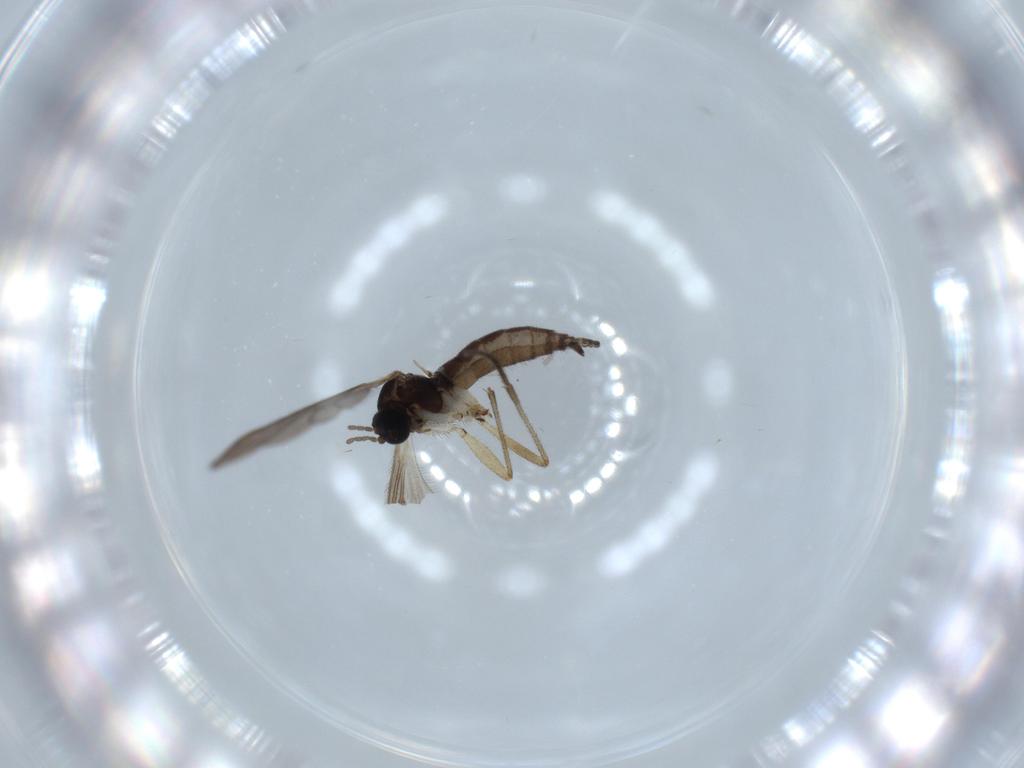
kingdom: Animalia
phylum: Arthropoda
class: Insecta
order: Diptera
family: Sciaridae
